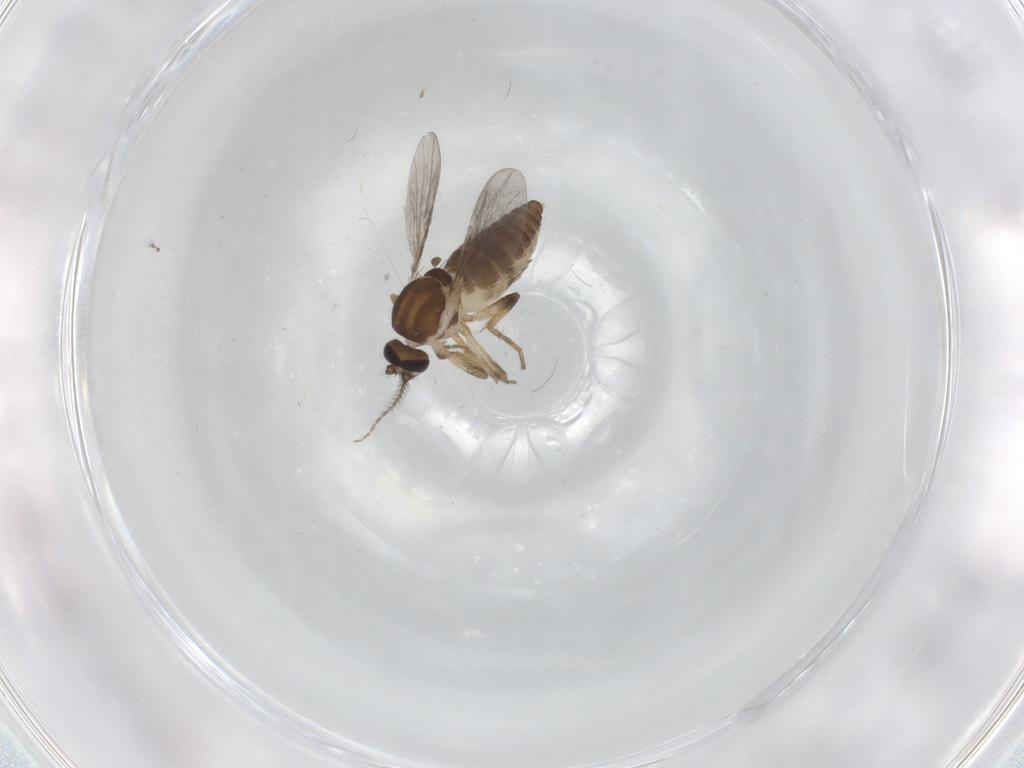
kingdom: Animalia
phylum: Arthropoda
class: Insecta
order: Diptera
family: Ceratopogonidae
